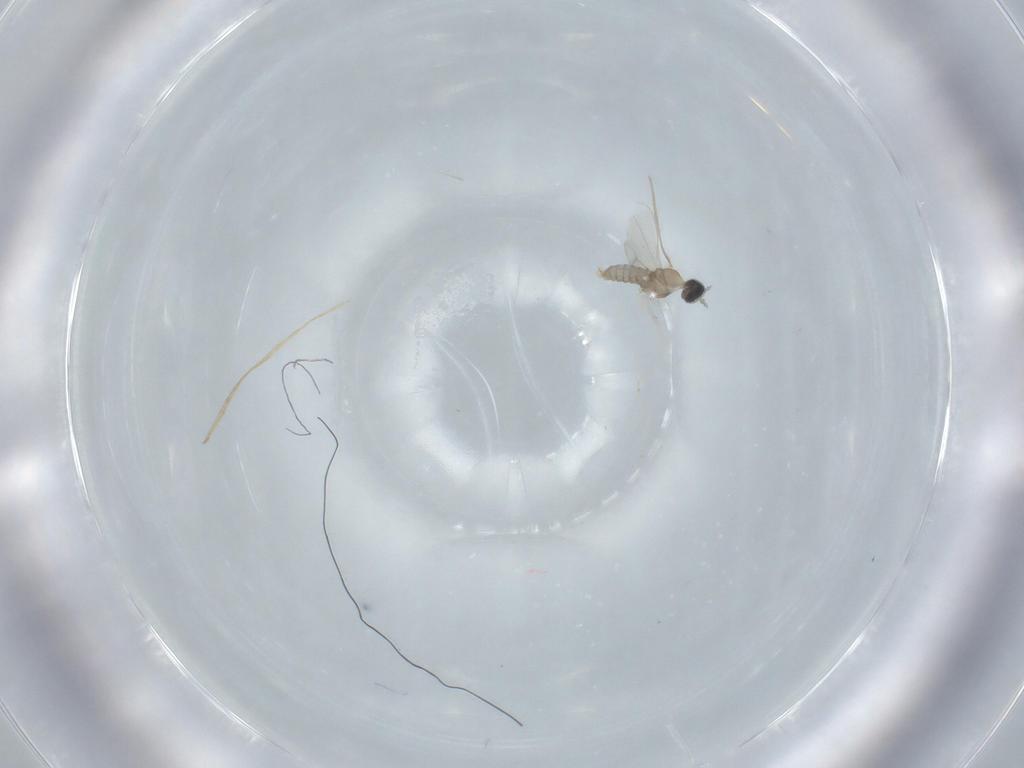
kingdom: Animalia
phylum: Arthropoda
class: Insecta
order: Diptera
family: Cecidomyiidae
